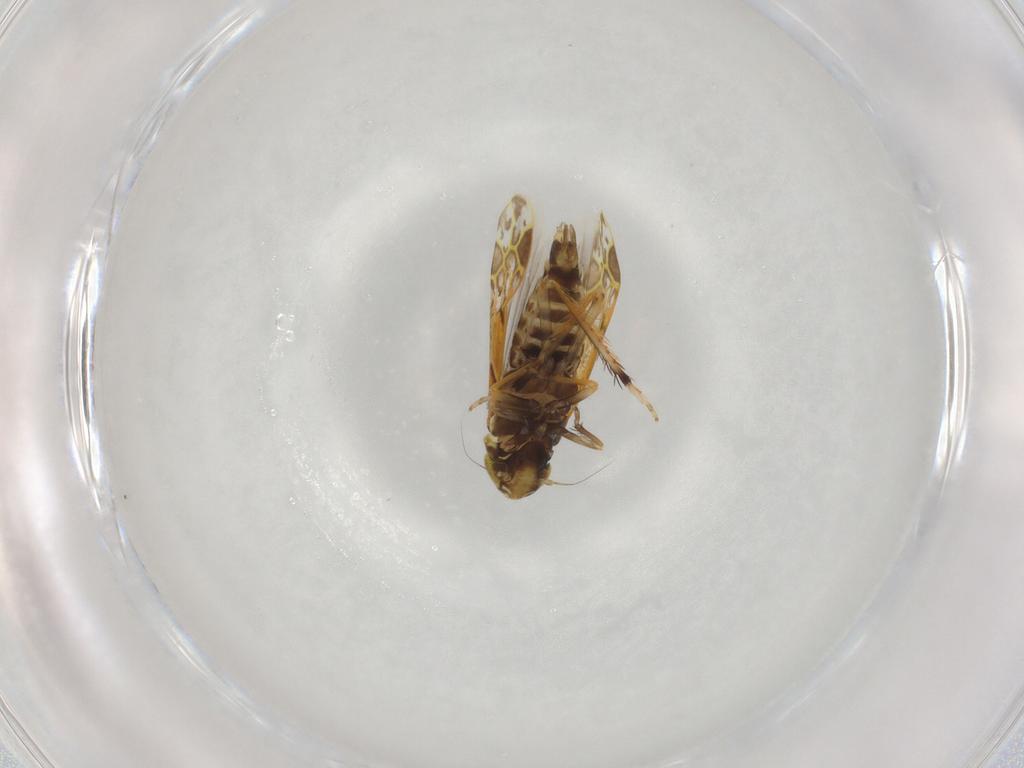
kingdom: Animalia
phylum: Arthropoda
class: Insecta
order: Hemiptera
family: Cicadellidae
